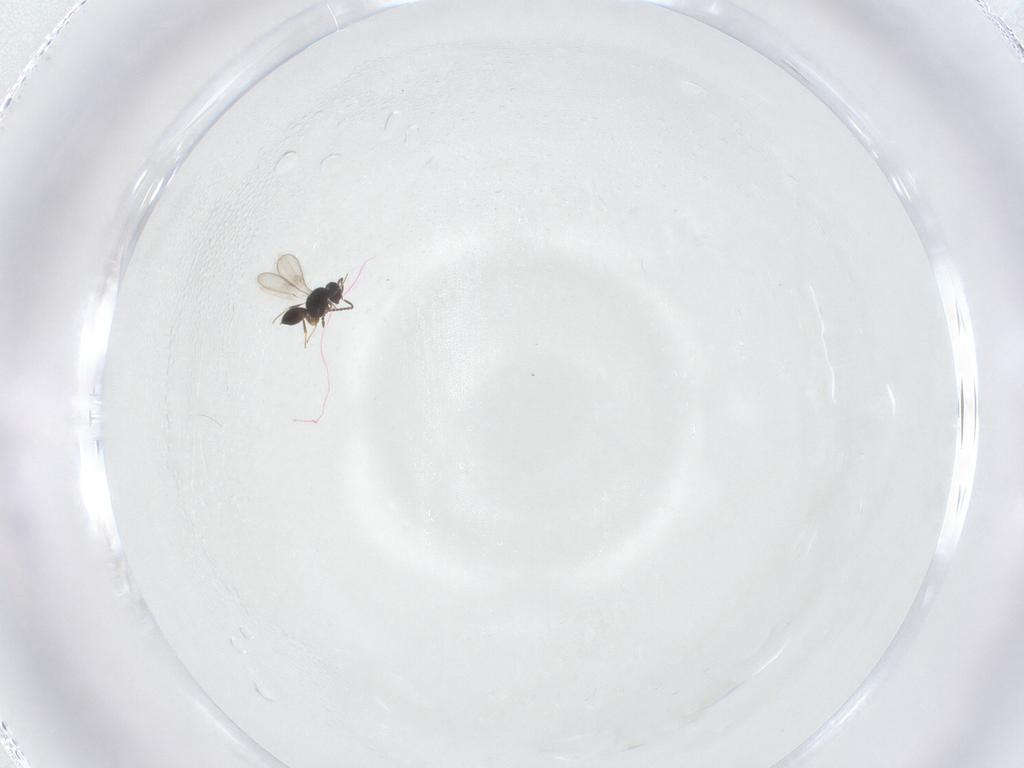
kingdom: Animalia
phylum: Arthropoda
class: Insecta
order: Hymenoptera
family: Scelionidae
